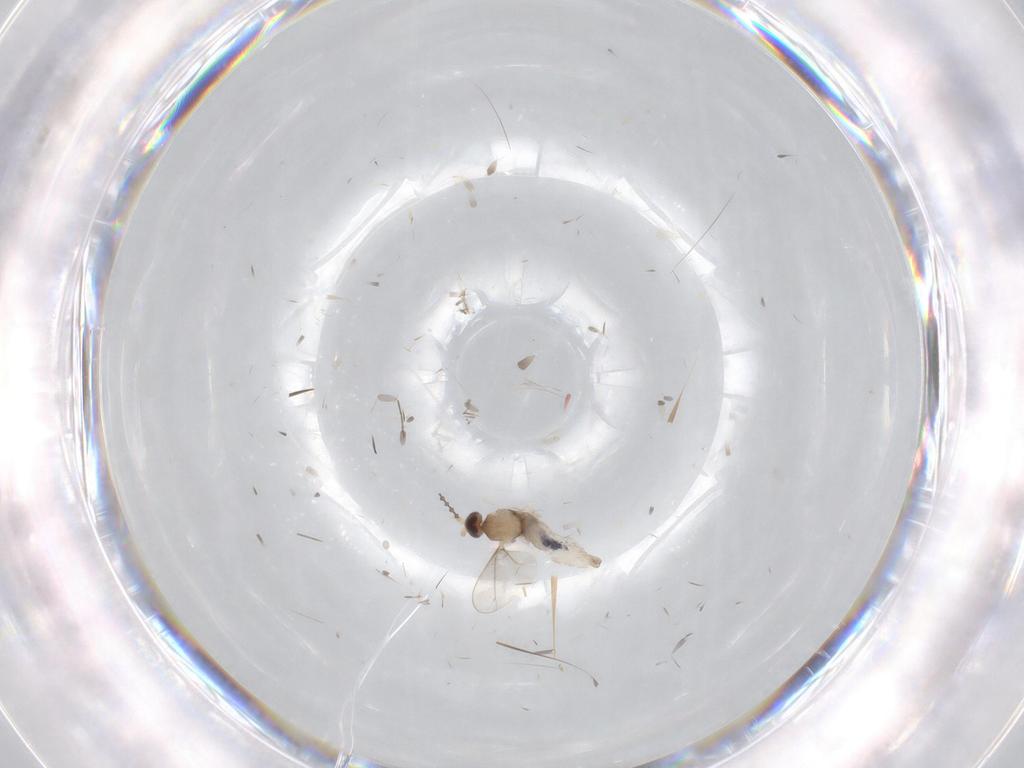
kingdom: Animalia
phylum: Arthropoda
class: Insecta
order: Diptera
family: Chironomidae
